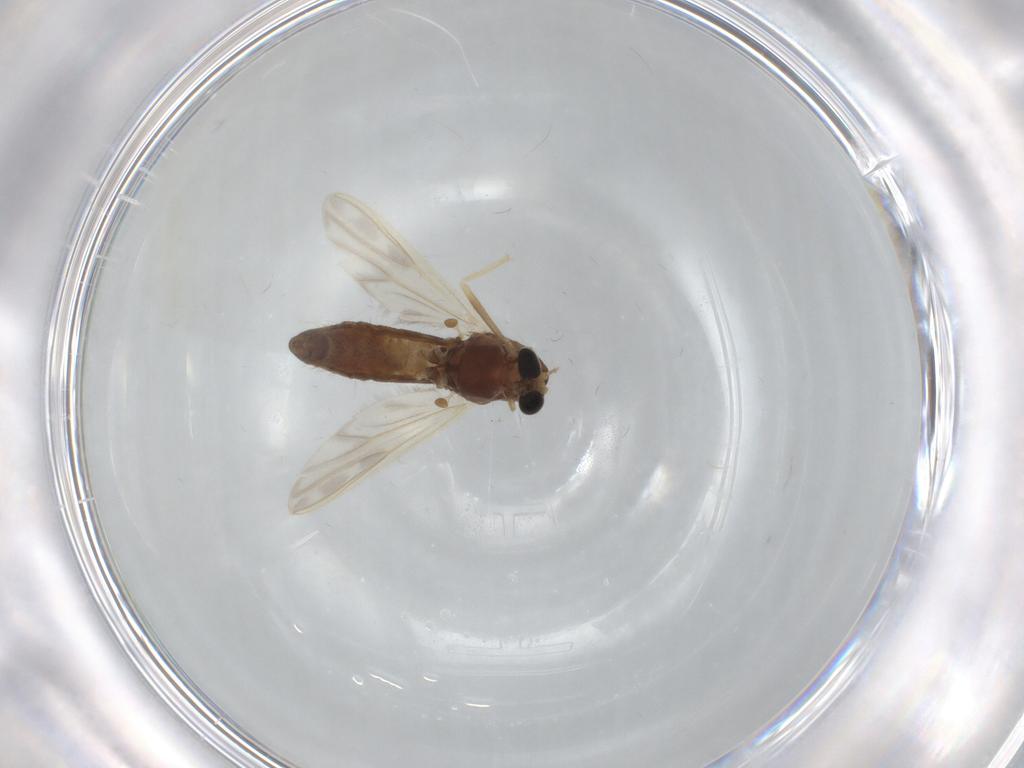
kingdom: Animalia
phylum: Arthropoda
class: Insecta
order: Diptera
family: Chironomidae
